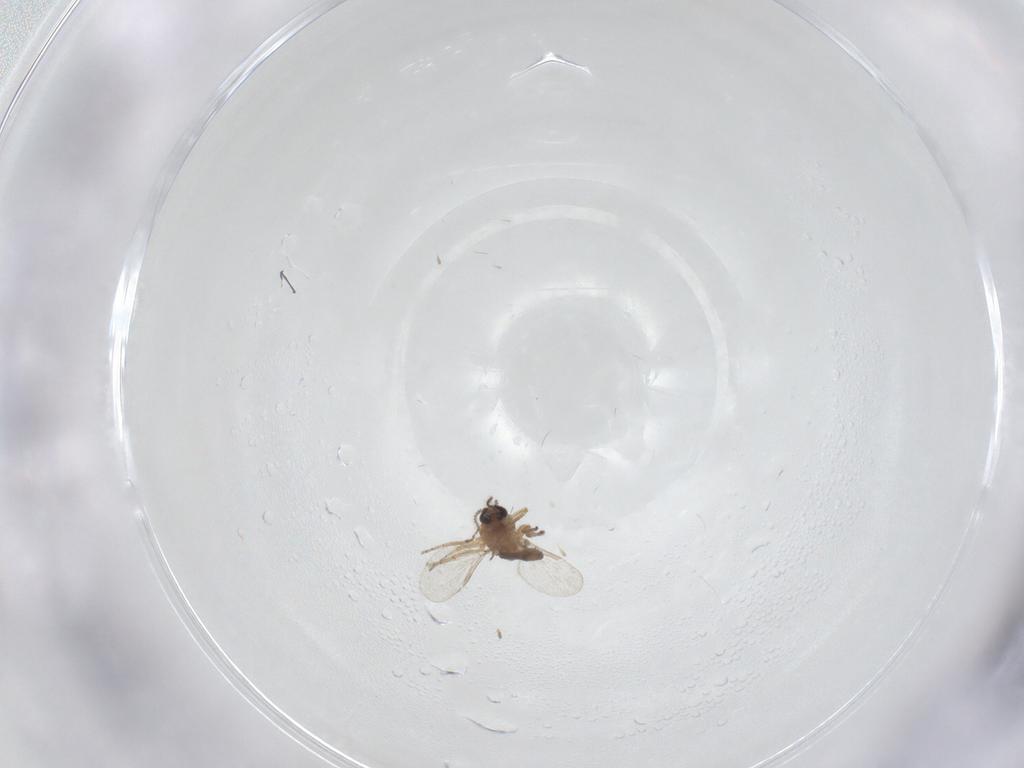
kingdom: Animalia
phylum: Arthropoda
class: Insecta
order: Diptera
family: Ceratopogonidae
